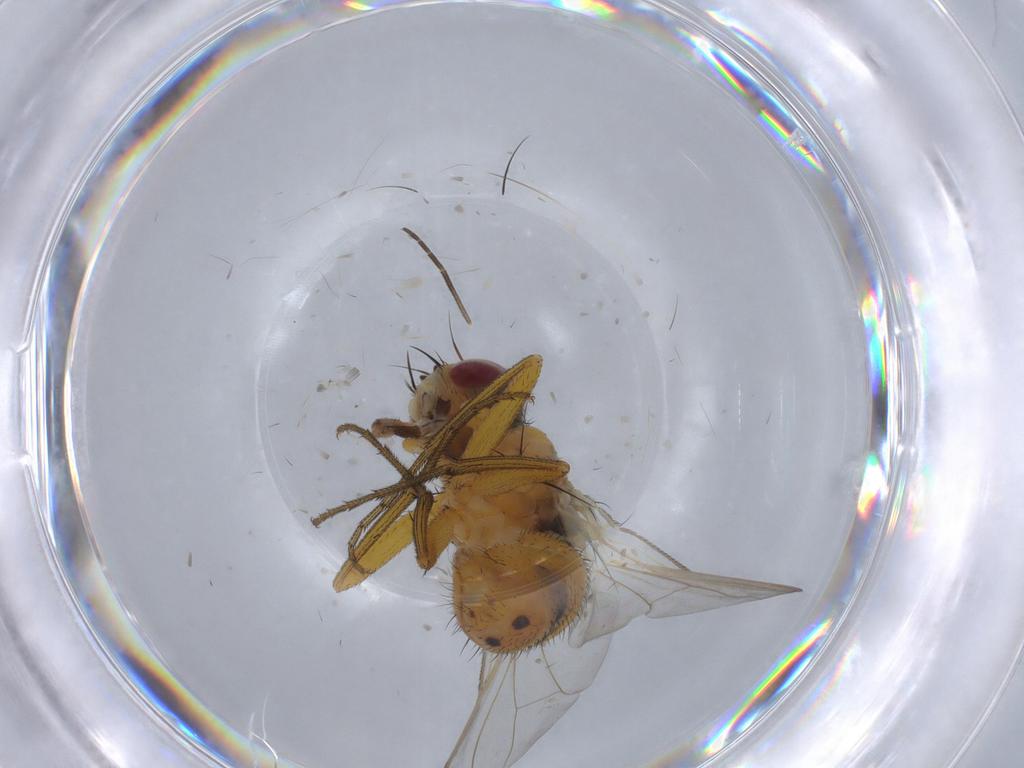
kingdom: Animalia
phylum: Arthropoda
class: Insecta
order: Diptera
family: Muscidae
